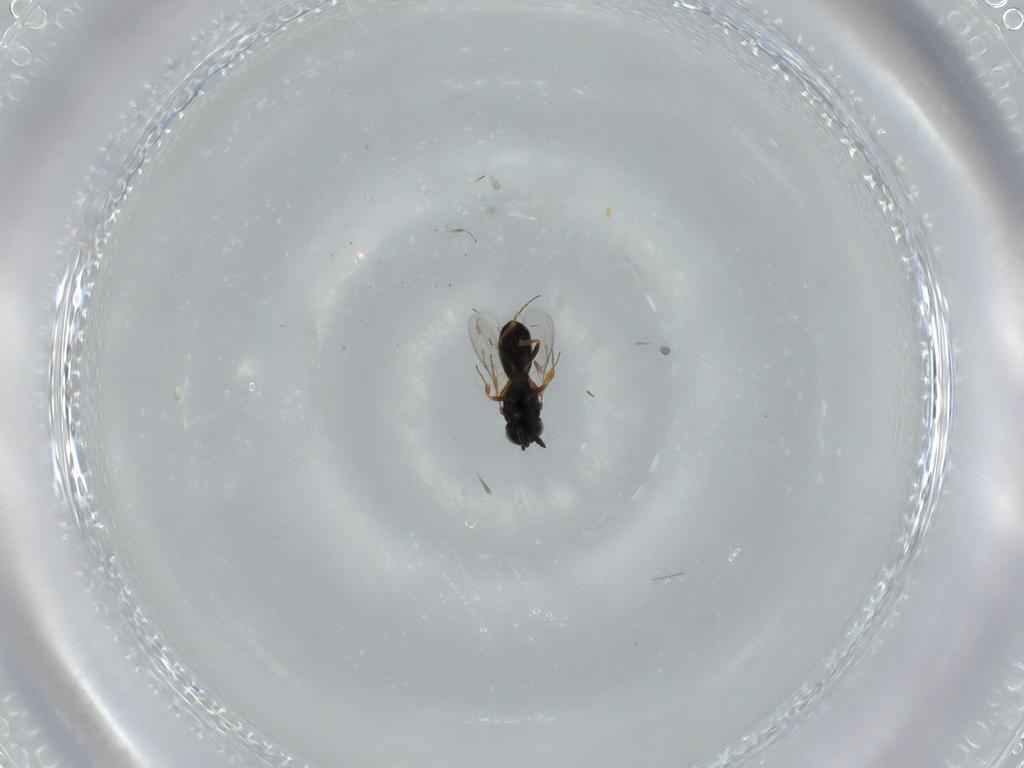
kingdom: Animalia
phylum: Arthropoda
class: Insecta
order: Hymenoptera
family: Scelionidae
